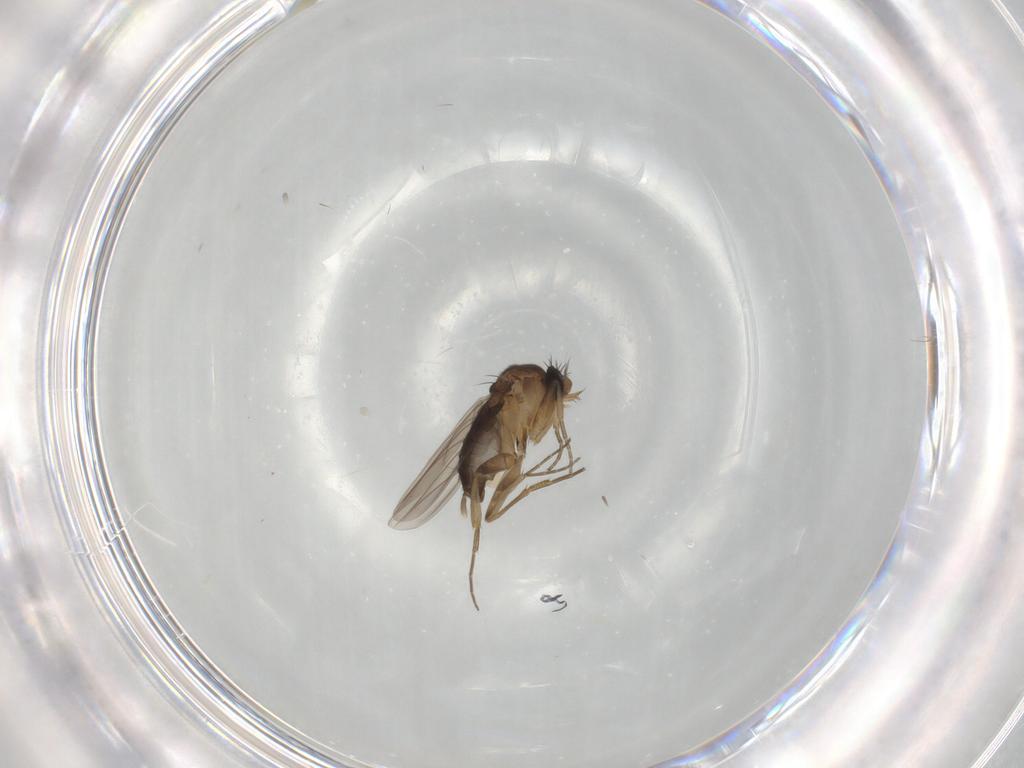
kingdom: Animalia
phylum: Arthropoda
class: Insecta
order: Diptera
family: Phoridae
